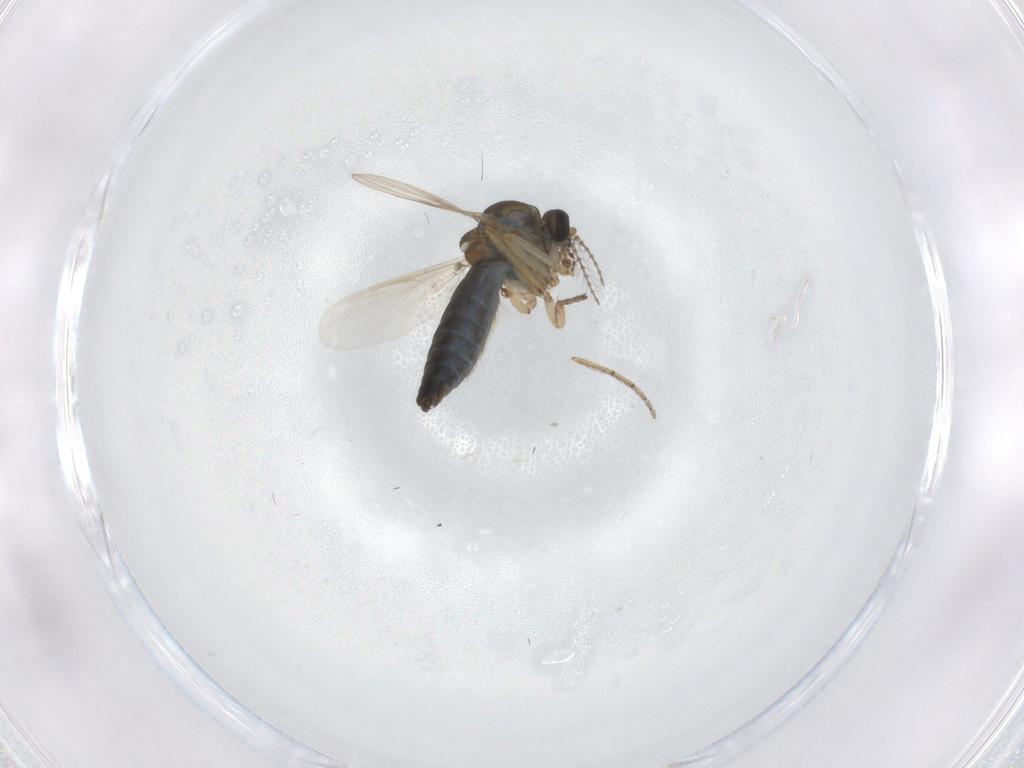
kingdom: Animalia
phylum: Arthropoda
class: Insecta
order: Diptera
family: Ceratopogonidae
